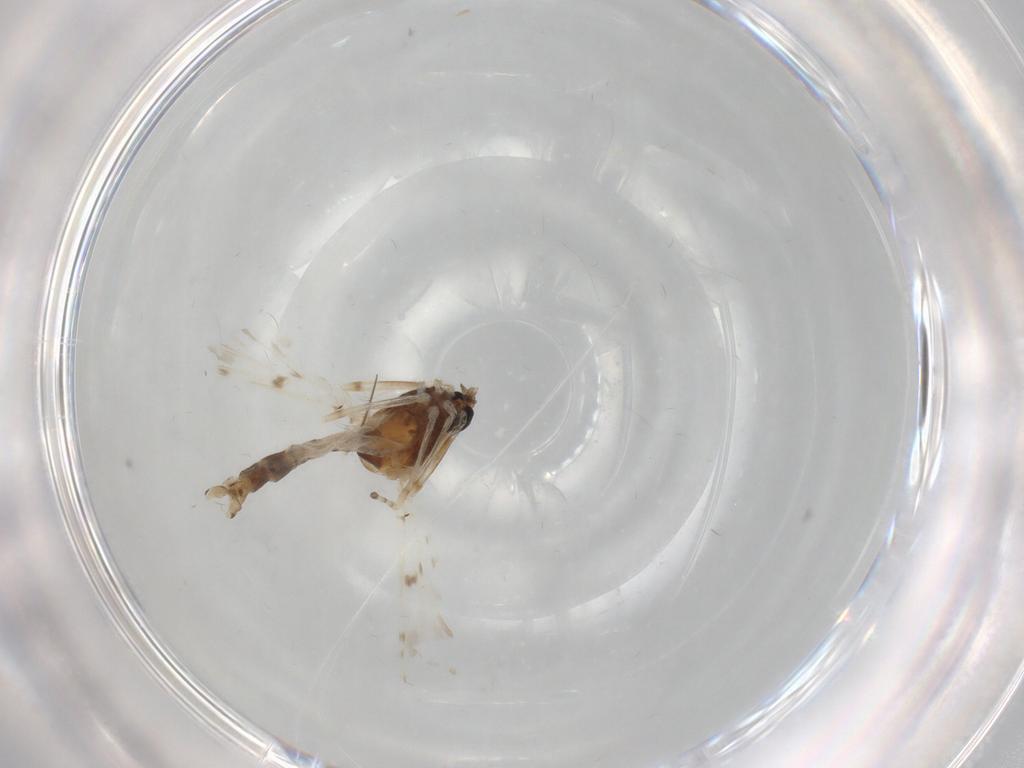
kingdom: Animalia
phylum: Arthropoda
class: Insecta
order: Diptera
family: Chironomidae
